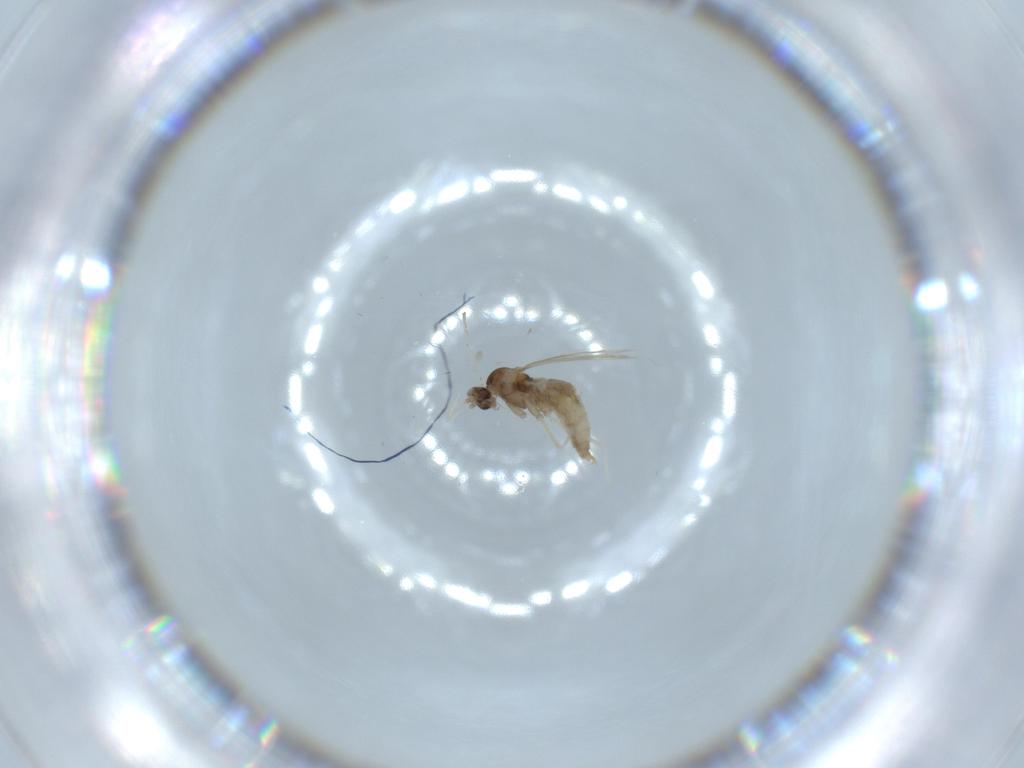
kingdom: Animalia
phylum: Arthropoda
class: Insecta
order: Diptera
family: Cecidomyiidae
